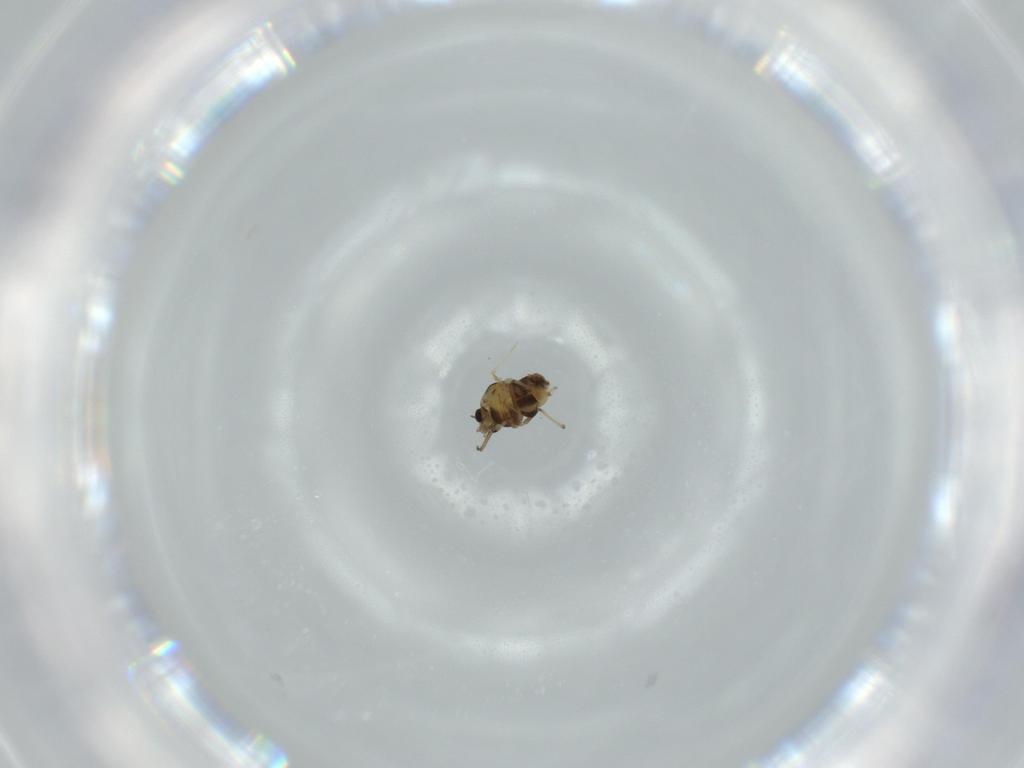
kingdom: Animalia
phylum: Arthropoda
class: Insecta
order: Diptera
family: Chironomidae
